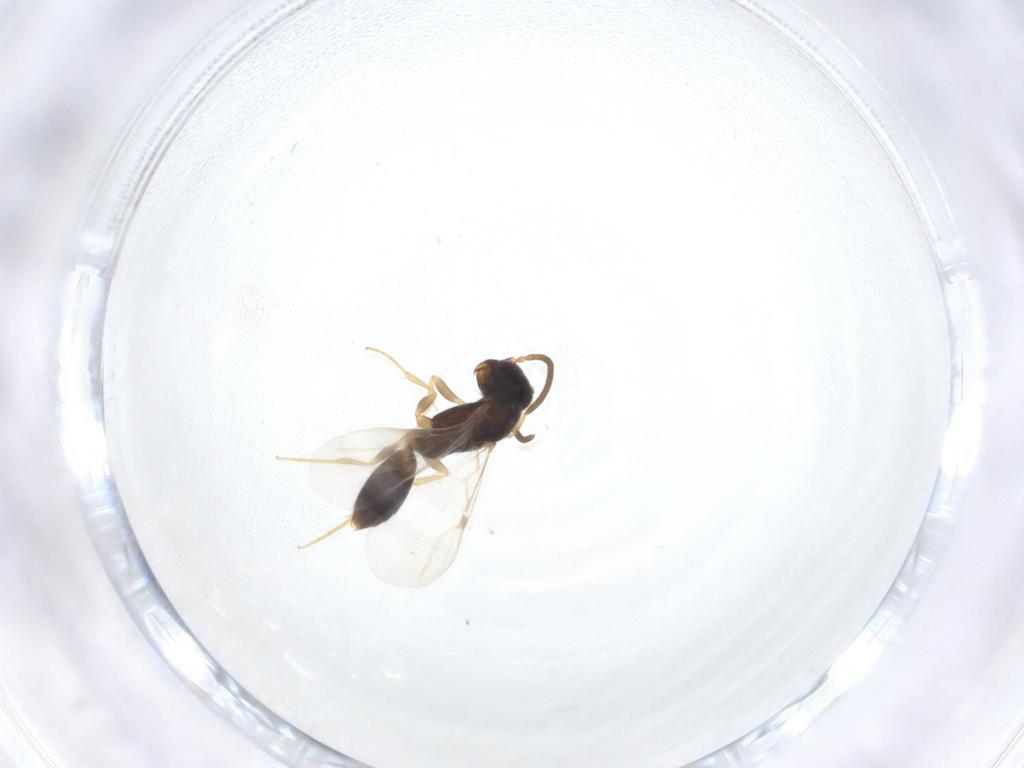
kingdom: Animalia
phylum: Arthropoda
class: Insecta
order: Hymenoptera
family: Bethylidae
